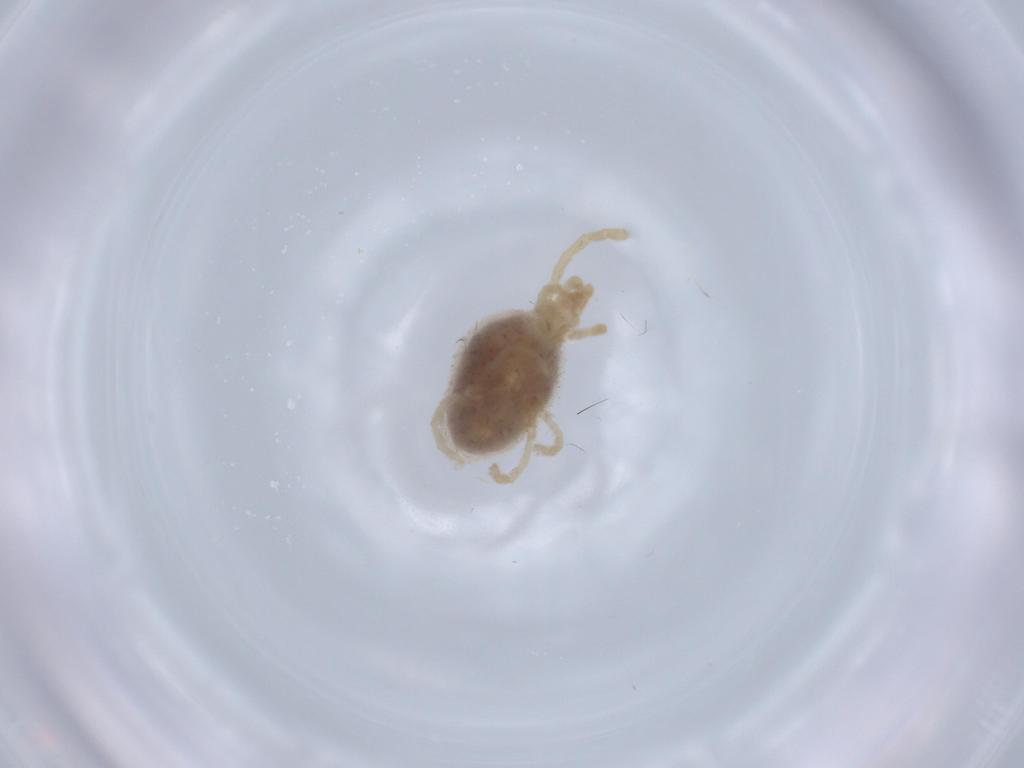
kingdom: Animalia
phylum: Arthropoda
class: Arachnida
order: Trombidiformes
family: Trombidiidae
